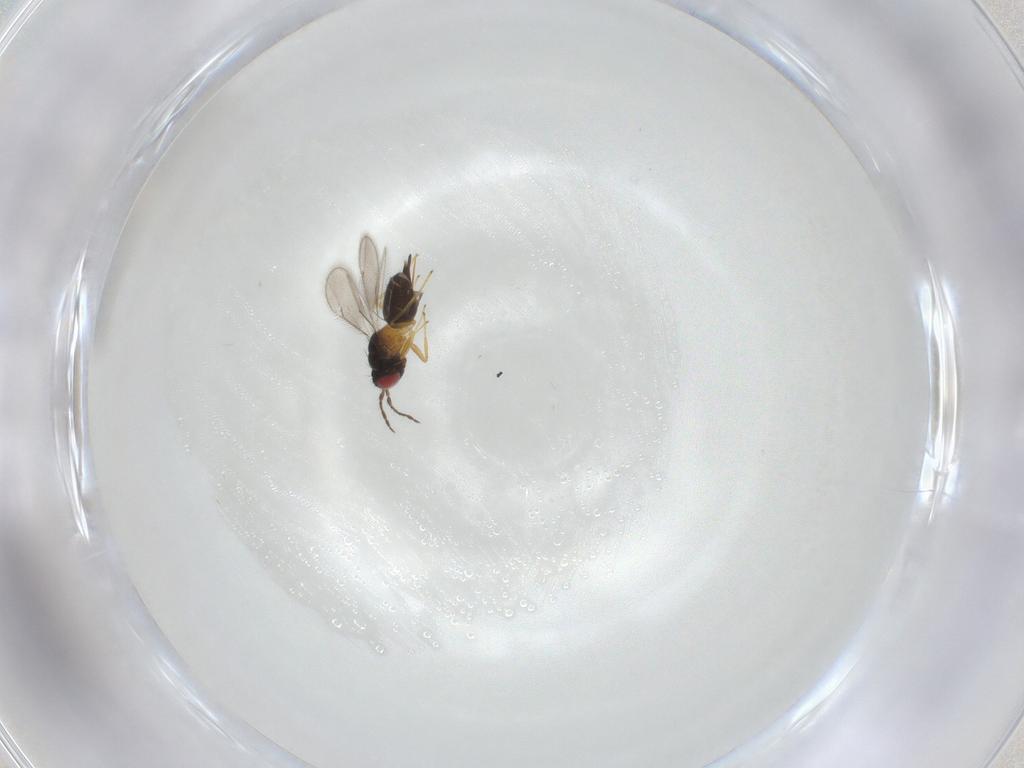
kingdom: Animalia
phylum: Arthropoda
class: Insecta
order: Hymenoptera
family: Eulophidae
